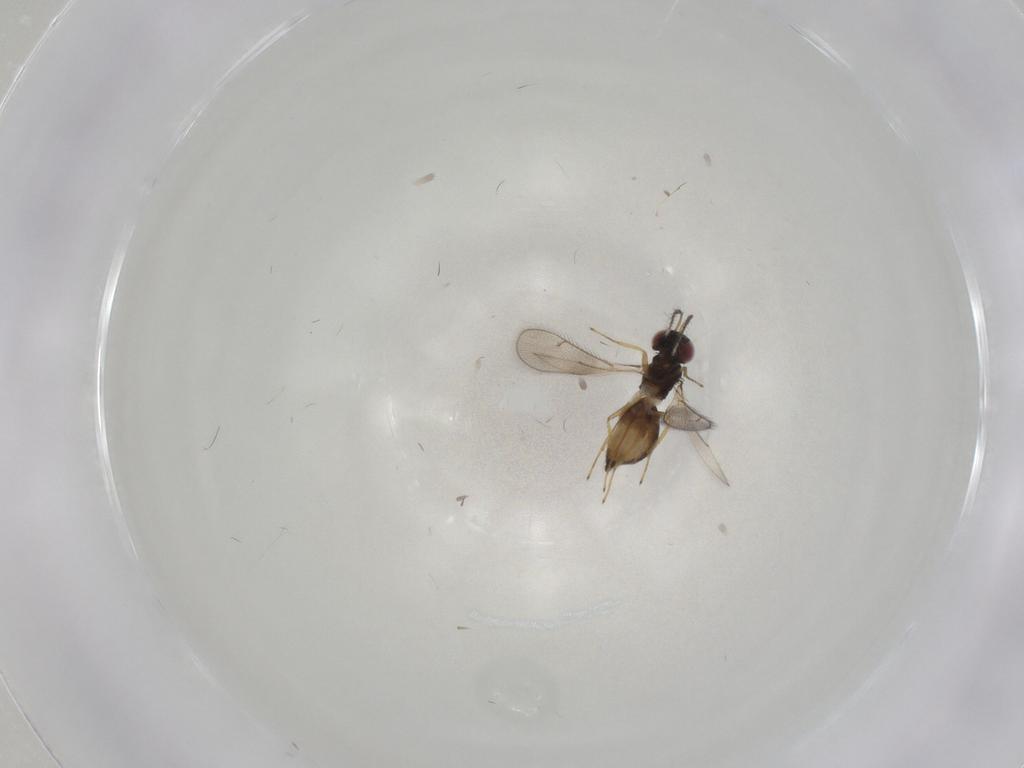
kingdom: Animalia
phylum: Arthropoda
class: Insecta
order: Hymenoptera
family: Eulophidae
